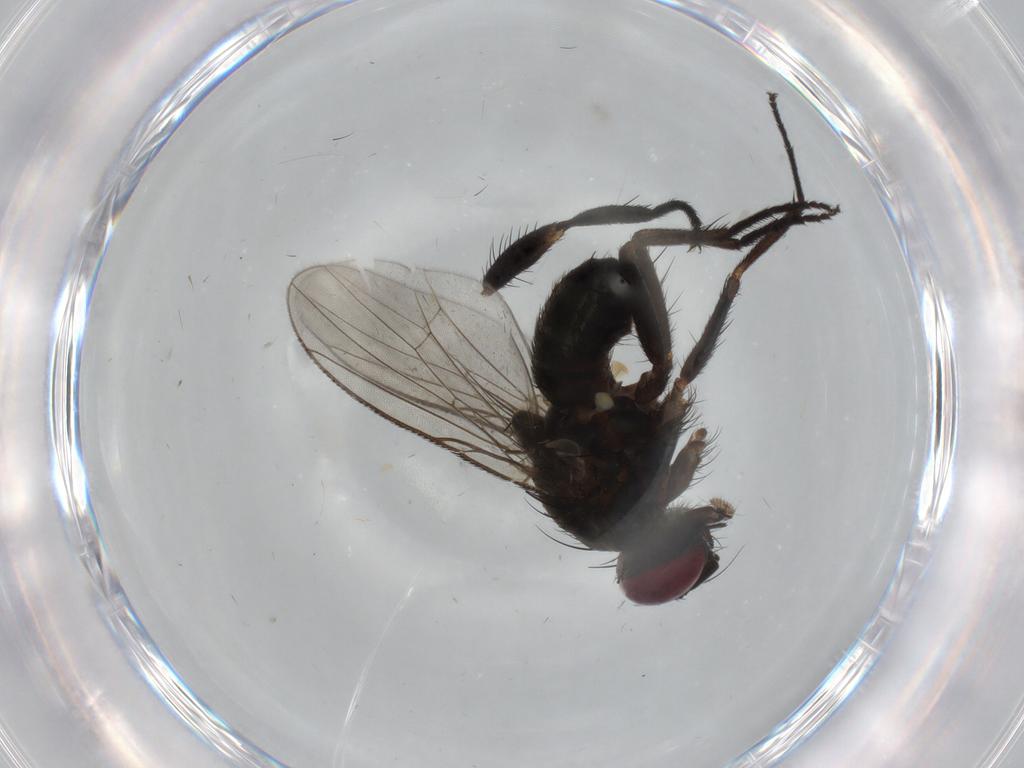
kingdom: Animalia
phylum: Arthropoda
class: Insecta
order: Diptera
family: Muscidae
